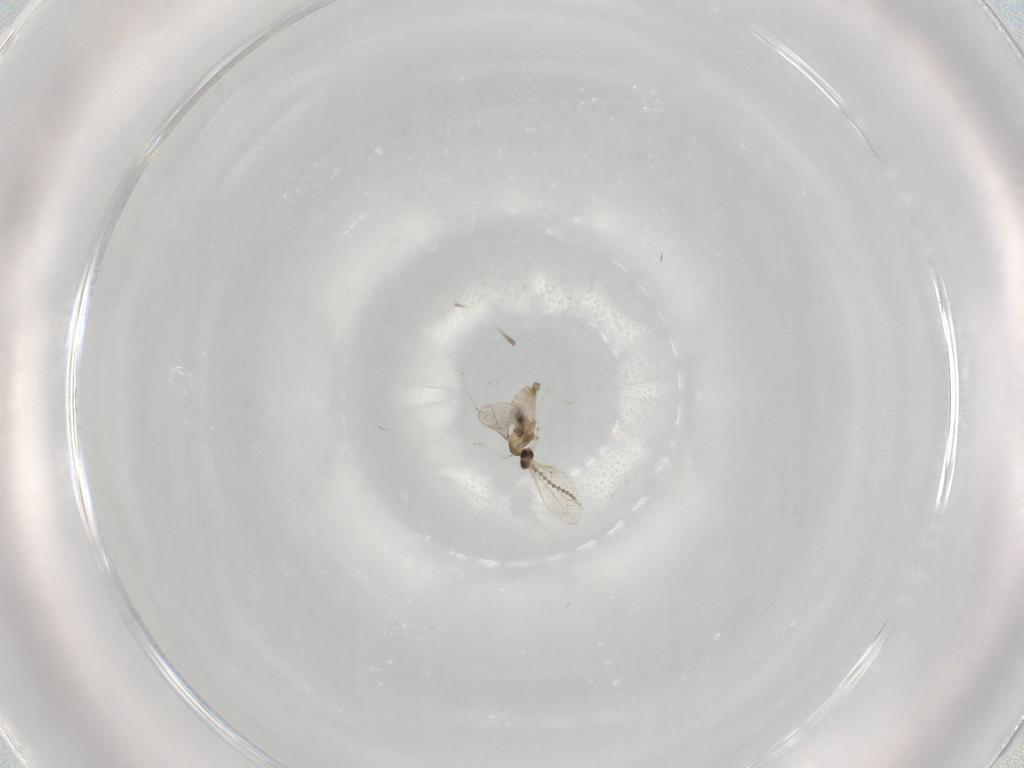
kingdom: Animalia
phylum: Arthropoda
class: Insecta
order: Diptera
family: Cecidomyiidae
